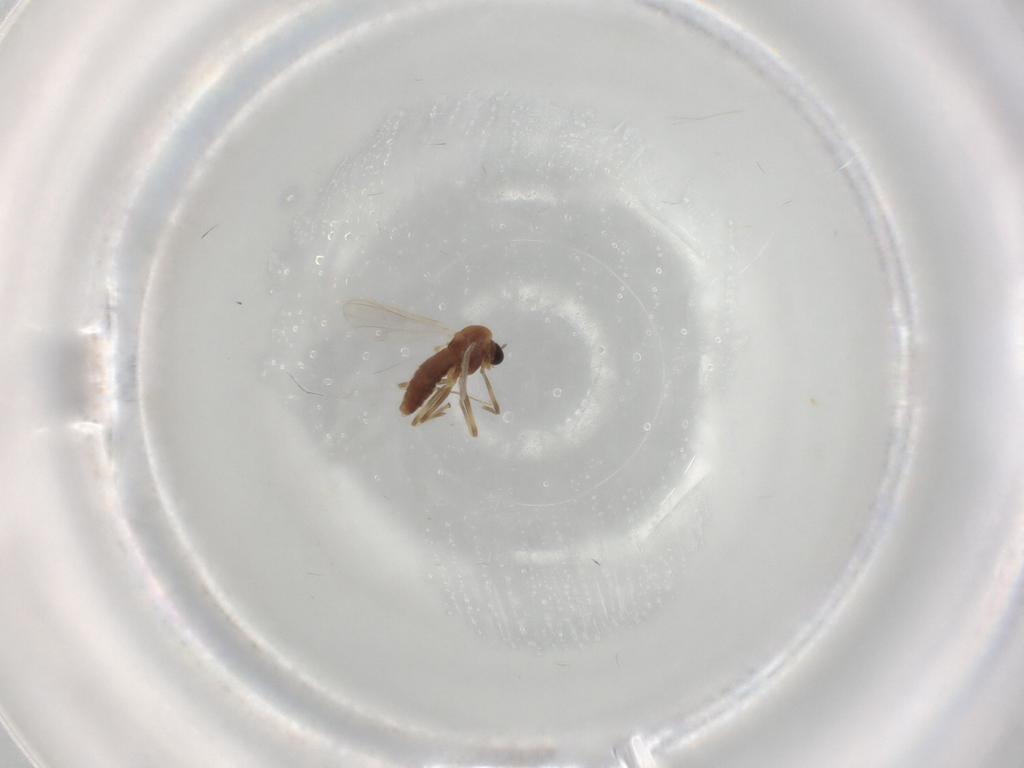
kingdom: Animalia
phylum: Arthropoda
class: Insecta
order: Diptera
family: Chironomidae
